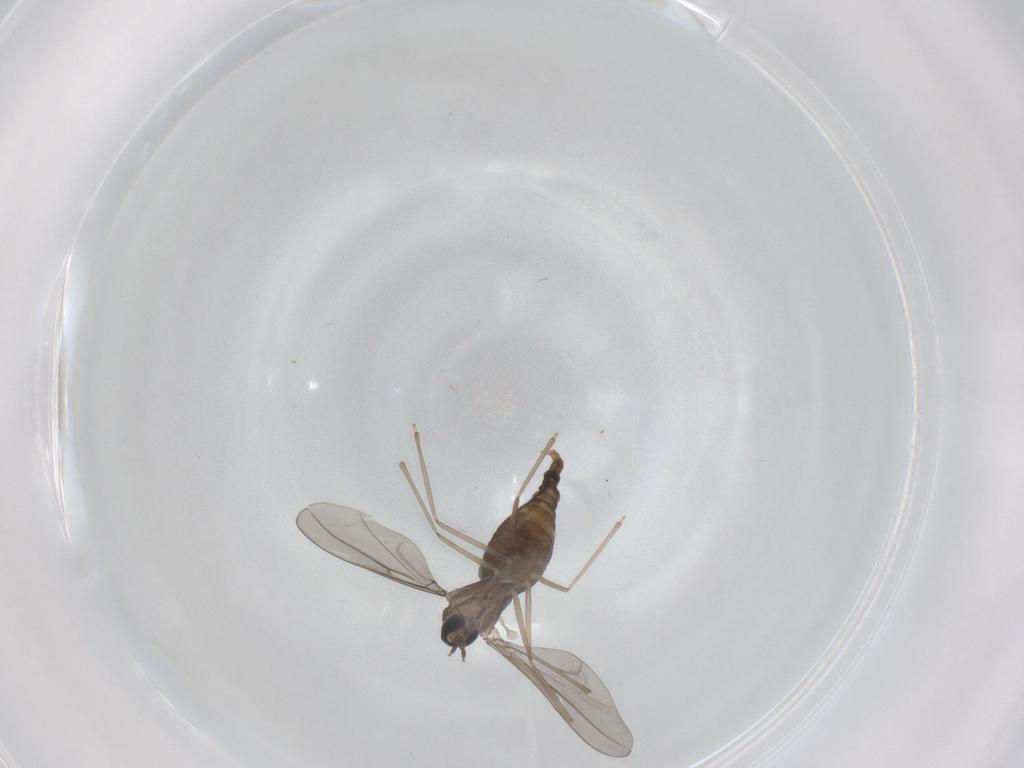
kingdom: Animalia
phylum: Arthropoda
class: Insecta
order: Diptera
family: Cecidomyiidae
